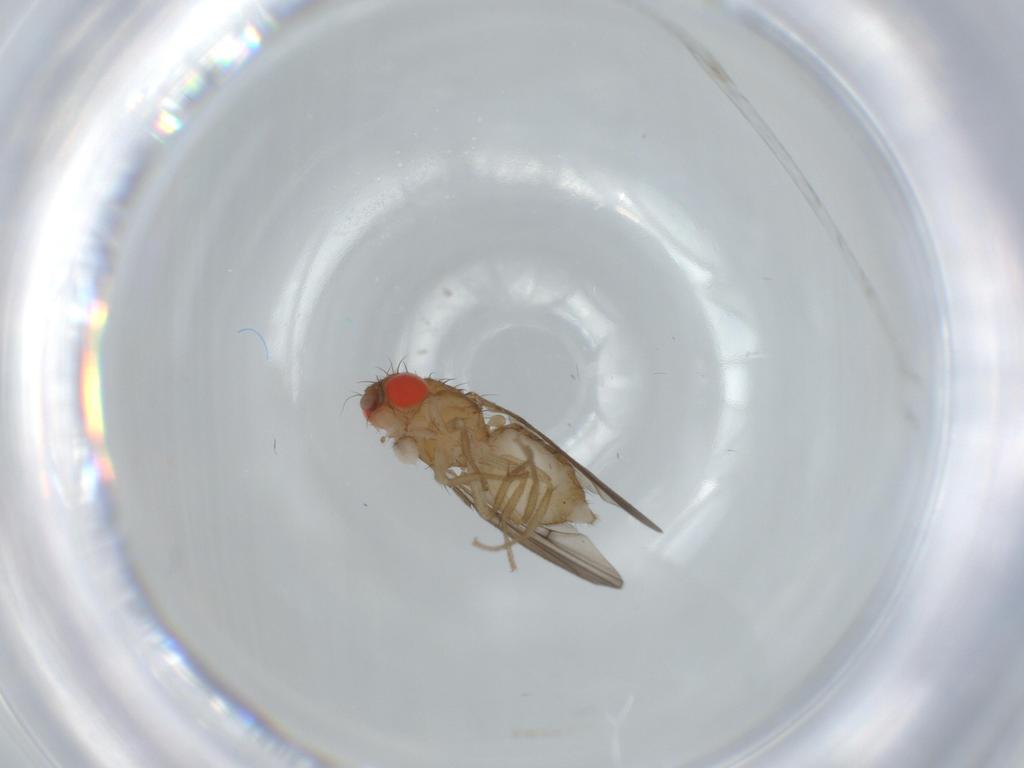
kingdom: Animalia
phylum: Arthropoda
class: Insecta
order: Diptera
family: Drosophilidae
